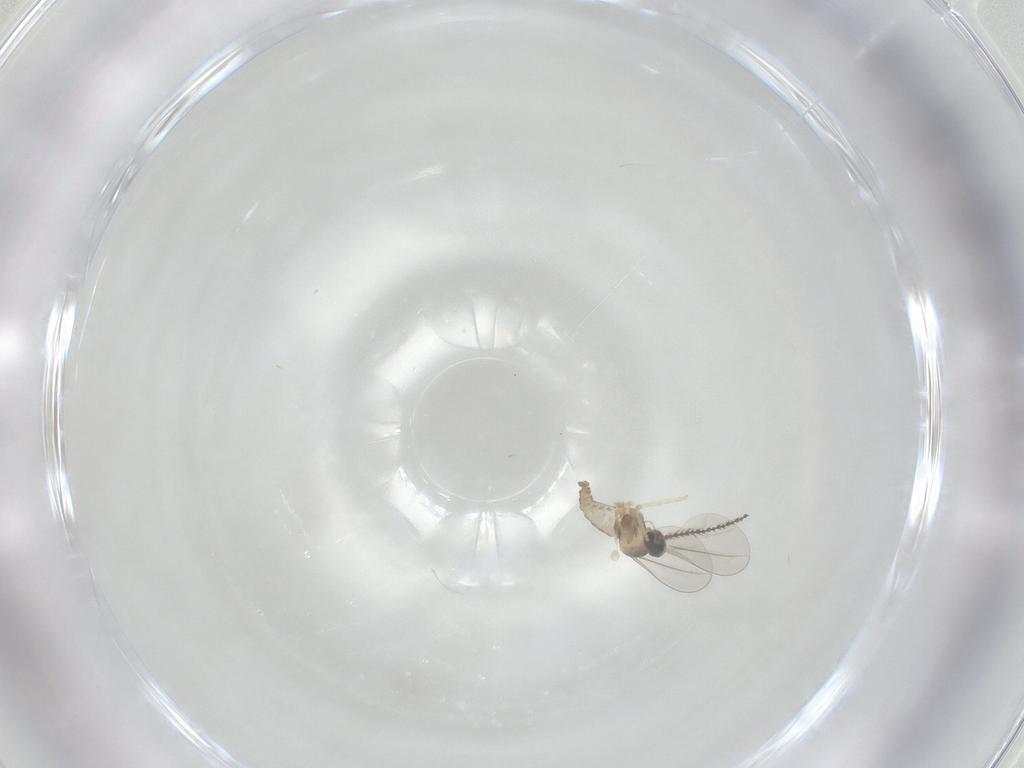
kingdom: Animalia
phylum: Arthropoda
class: Insecta
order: Diptera
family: Cecidomyiidae
